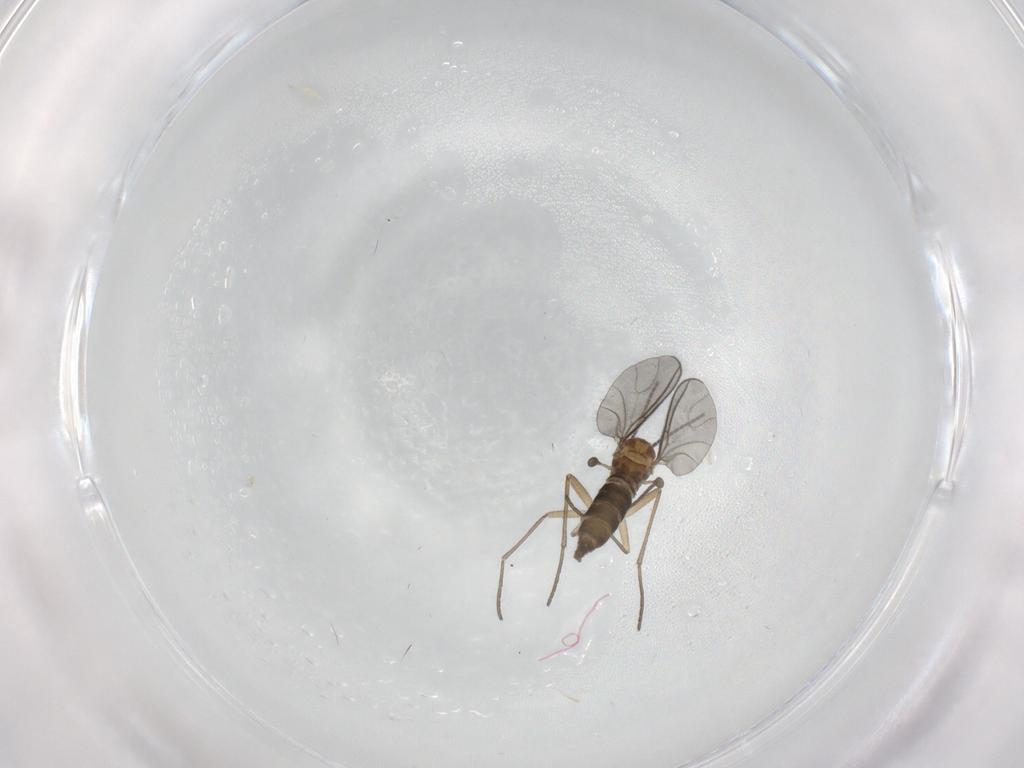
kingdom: Animalia
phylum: Arthropoda
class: Insecta
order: Diptera
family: Sciaridae
